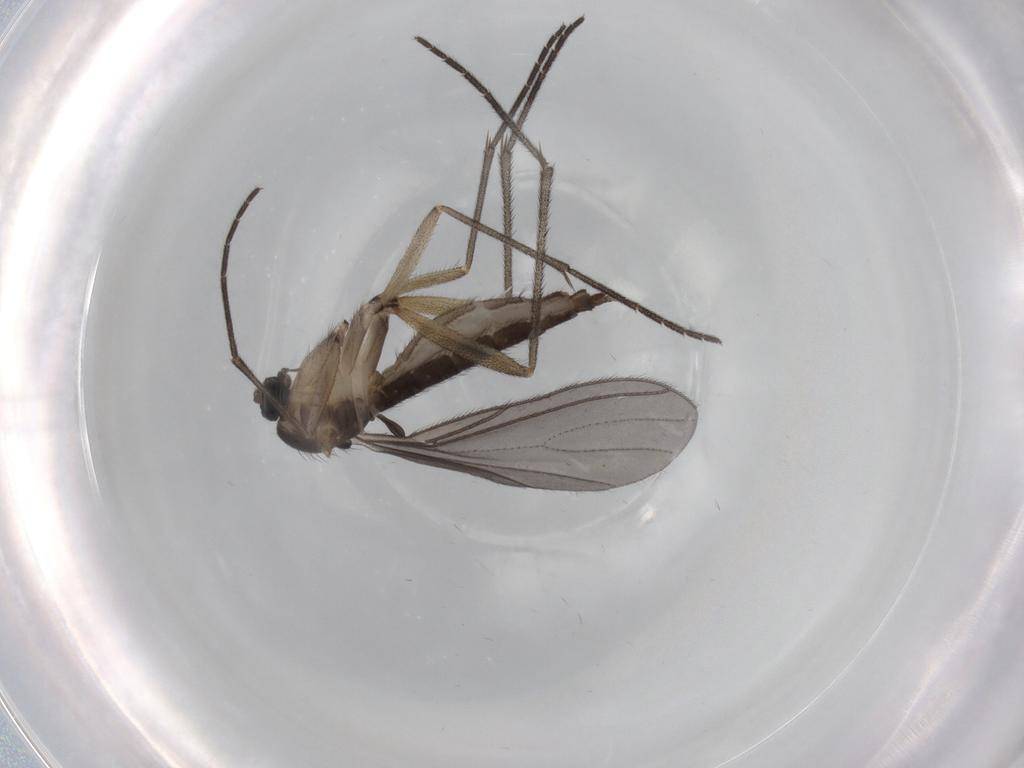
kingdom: Animalia
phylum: Arthropoda
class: Insecta
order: Diptera
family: Sciaridae
